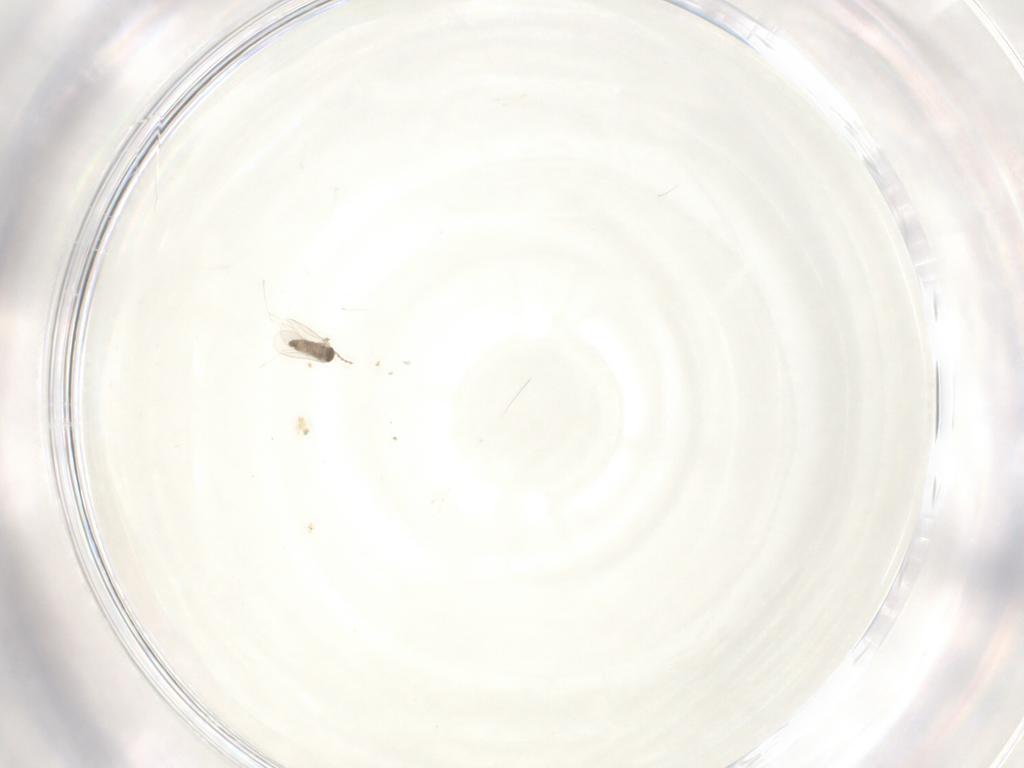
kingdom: Animalia
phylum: Arthropoda
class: Insecta
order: Diptera
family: Cecidomyiidae
